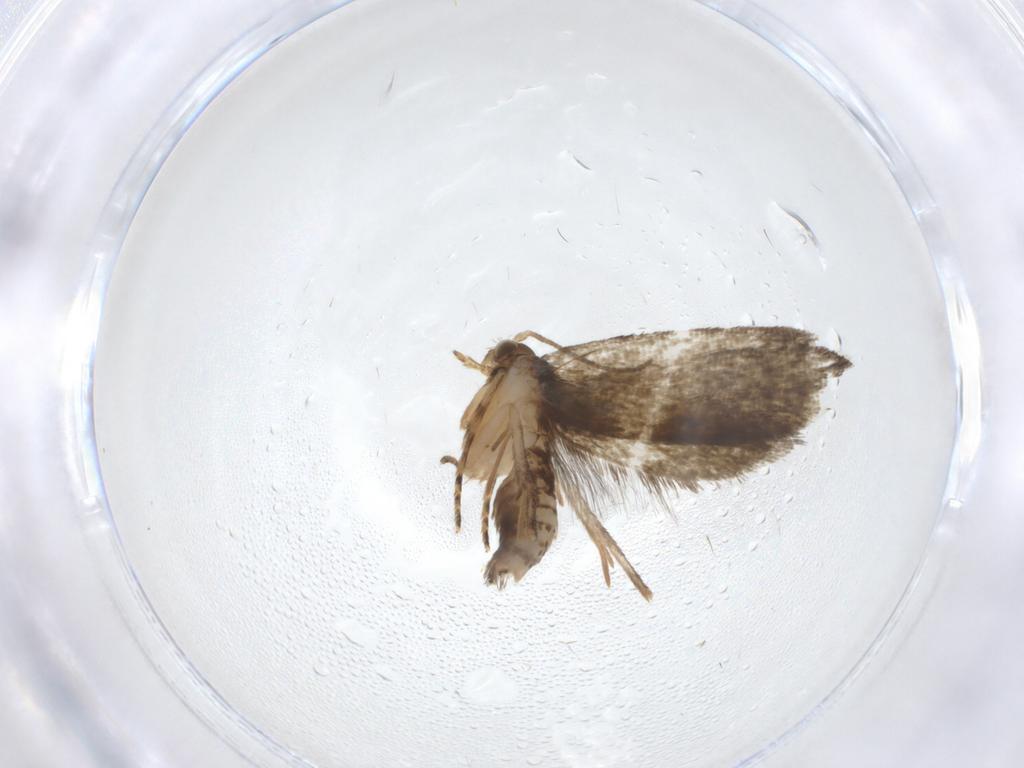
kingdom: Animalia
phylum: Arthropoda
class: Insecta
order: Lepidoptera
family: Crambidae
